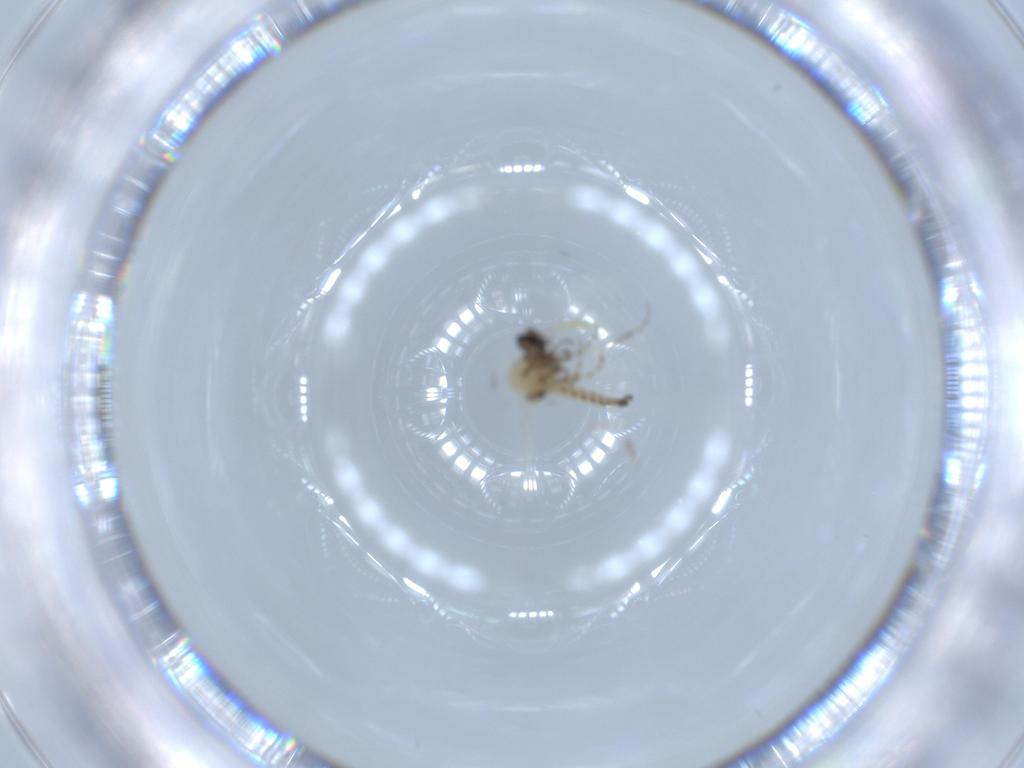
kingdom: Animalia
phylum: Arthropoda
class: Insecta
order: Diptera
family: Ceratopogonidae
